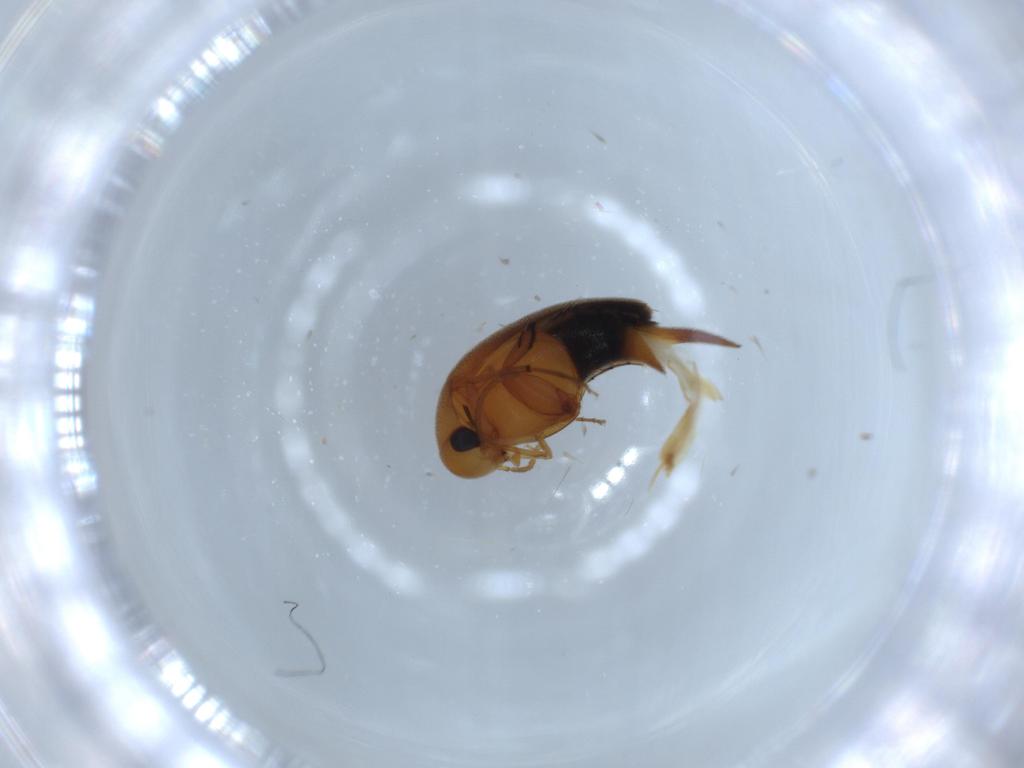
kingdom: Animalia
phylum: Arthropoda
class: Insecta
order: Coleoptera
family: Mordellidae
